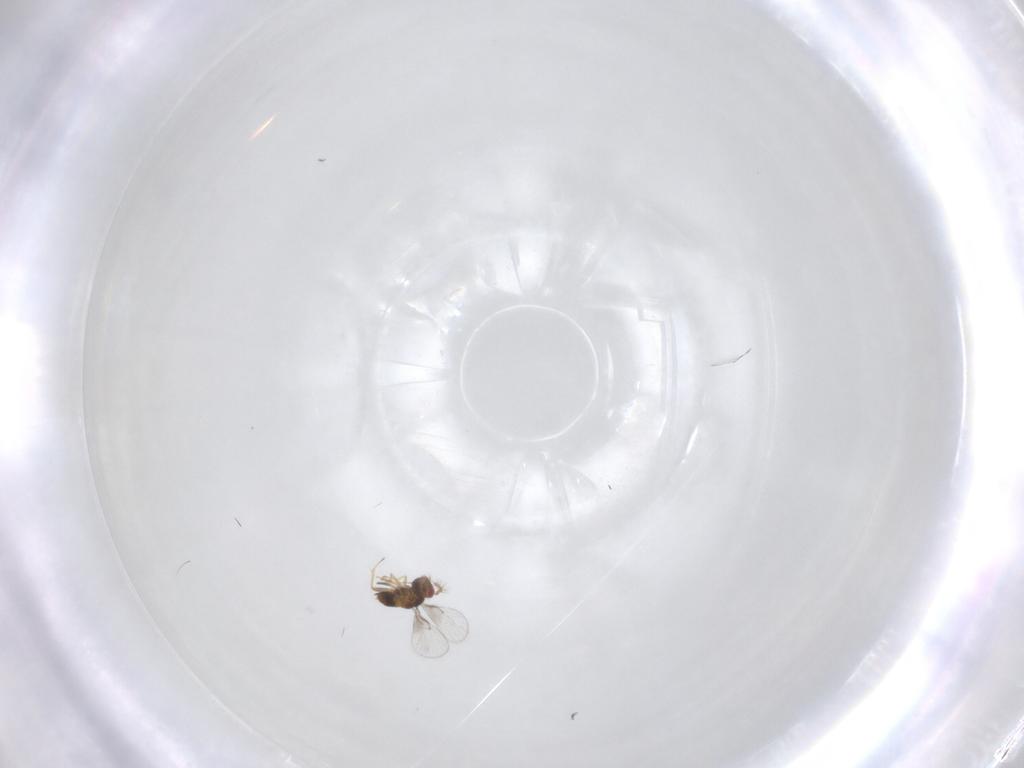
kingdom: Animalia
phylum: Arthropoda
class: Insecta
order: Hymenoptera
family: Trichogrammatidae
